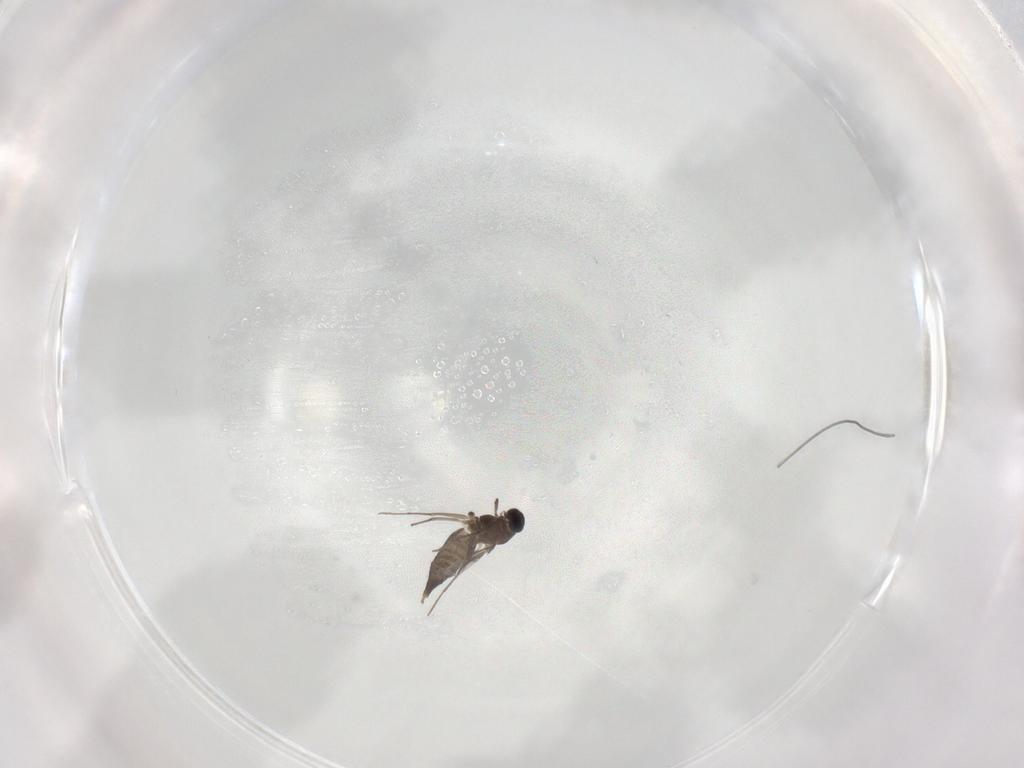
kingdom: Animalia
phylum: Arthropoda
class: Insecta
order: Diptera
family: Chironomidae
